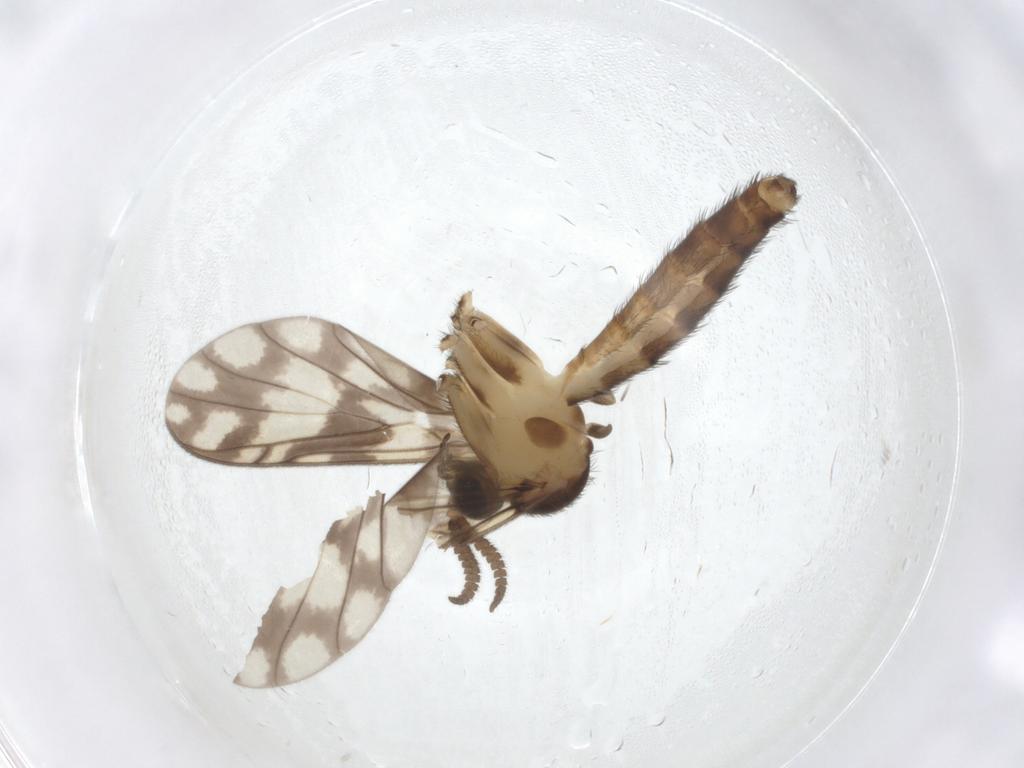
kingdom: Animalia
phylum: Arthropoda
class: Insecta
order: Diptera
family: Keroplatidae
